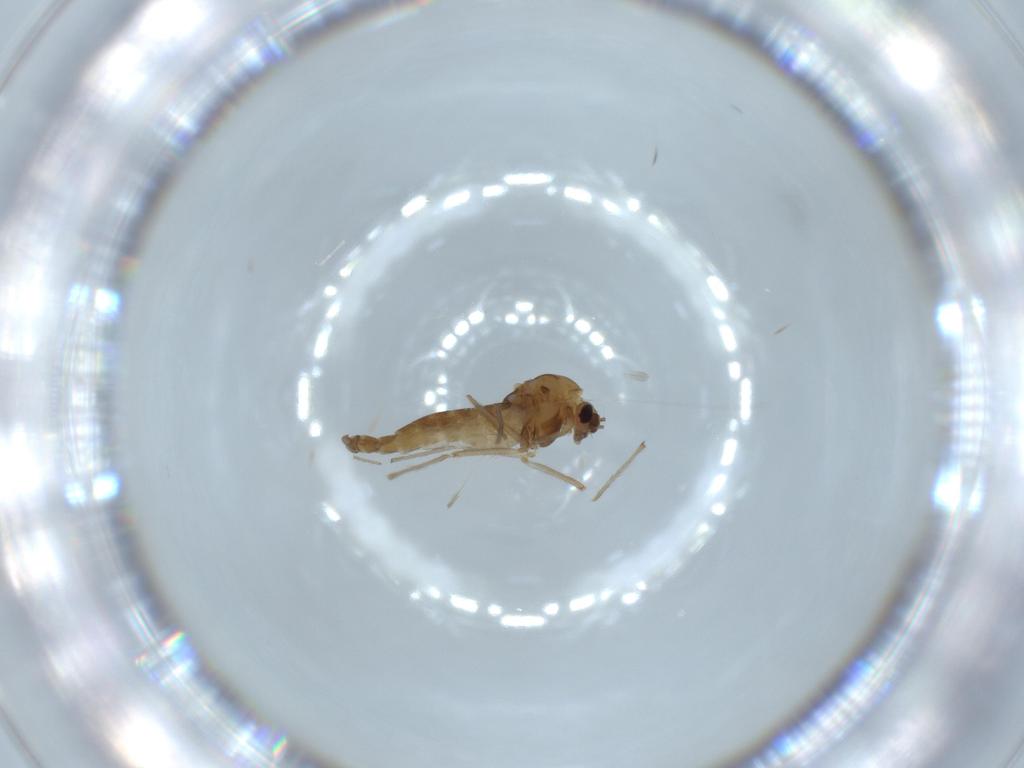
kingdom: Animalia
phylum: Arthropoda
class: Insecta
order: Diptera
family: Chironomidae
